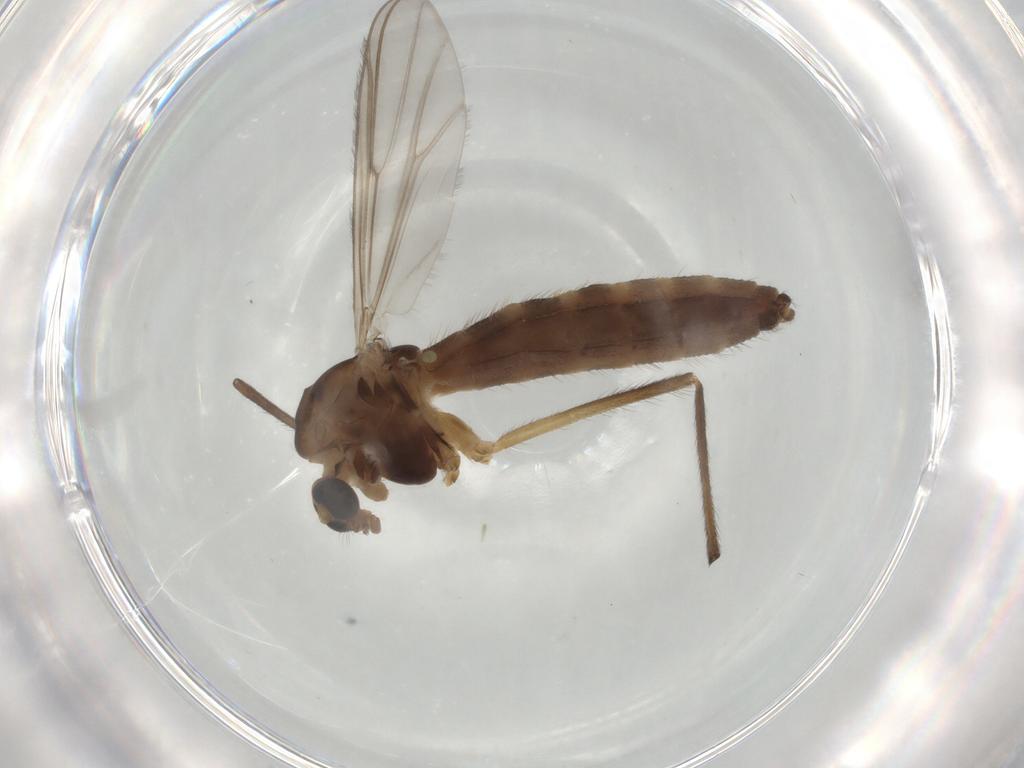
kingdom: Animalia
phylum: Arthropoda
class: Insecta
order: Diptera
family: Chironomidae
